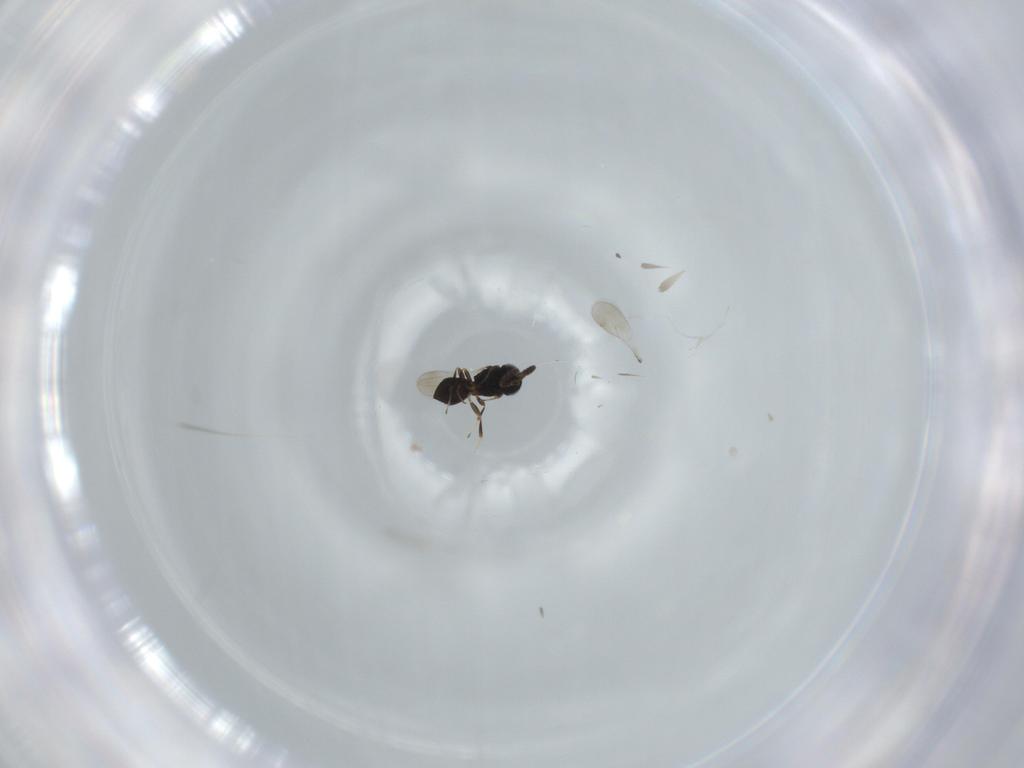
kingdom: Animalia
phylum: Arthropoda
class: Insecta
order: Hymenoptera
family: Scelionidae
